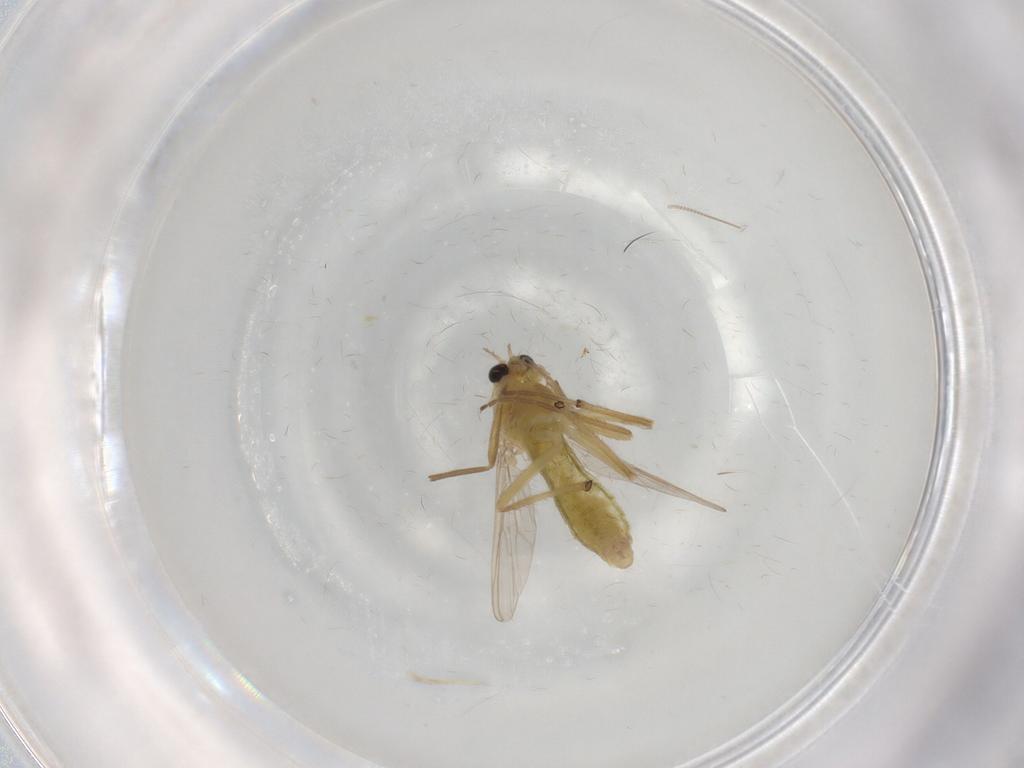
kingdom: Animalia
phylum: Arthropoda
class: Insecta
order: Diptera
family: Chironomidae
